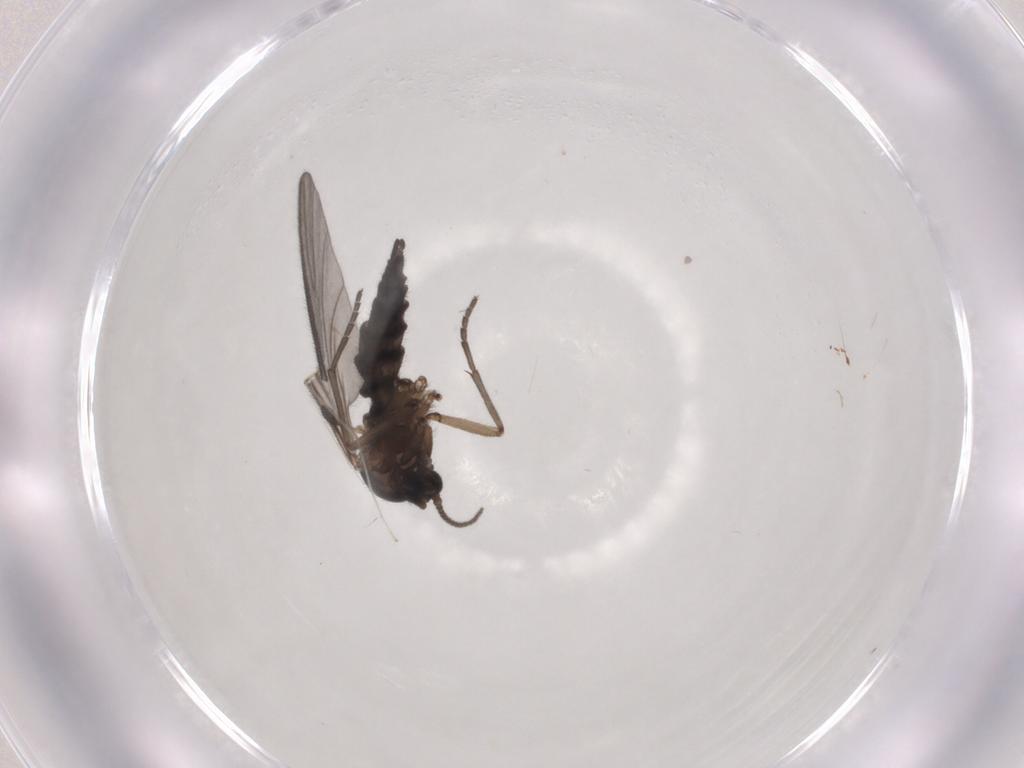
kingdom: Animalia
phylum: Arthropoda
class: Insecta
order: Diptera
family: Sciaridae
